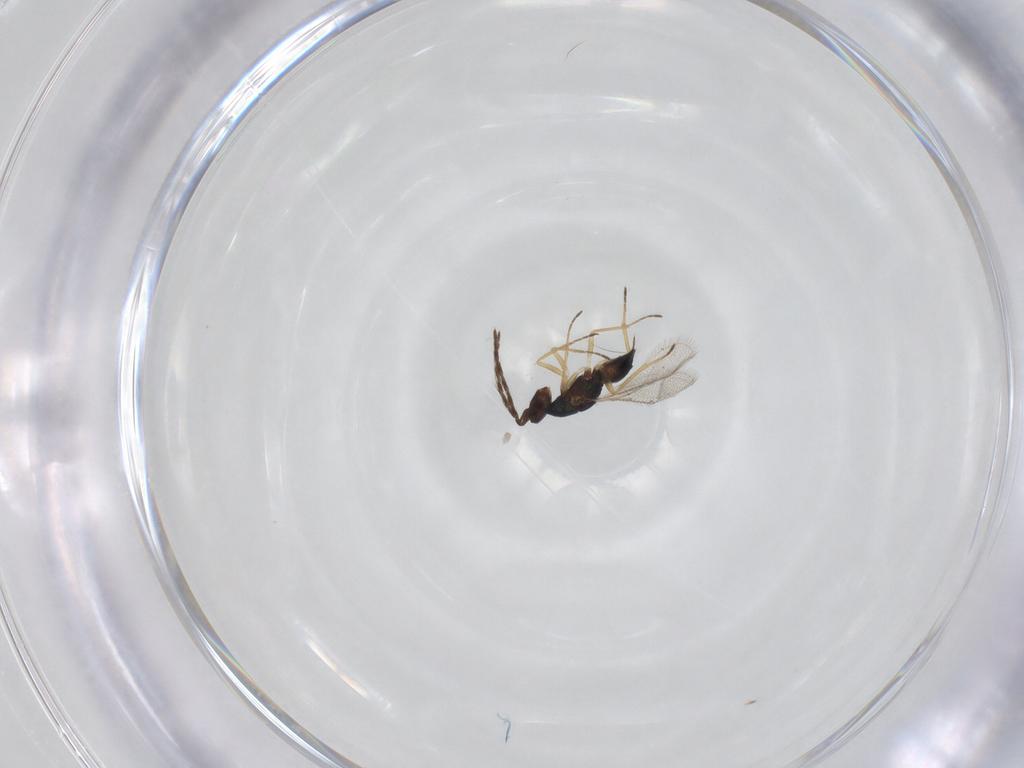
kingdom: Animalia
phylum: Arthropoda
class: Insecta
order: Hymenoptera
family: Eulophidae
